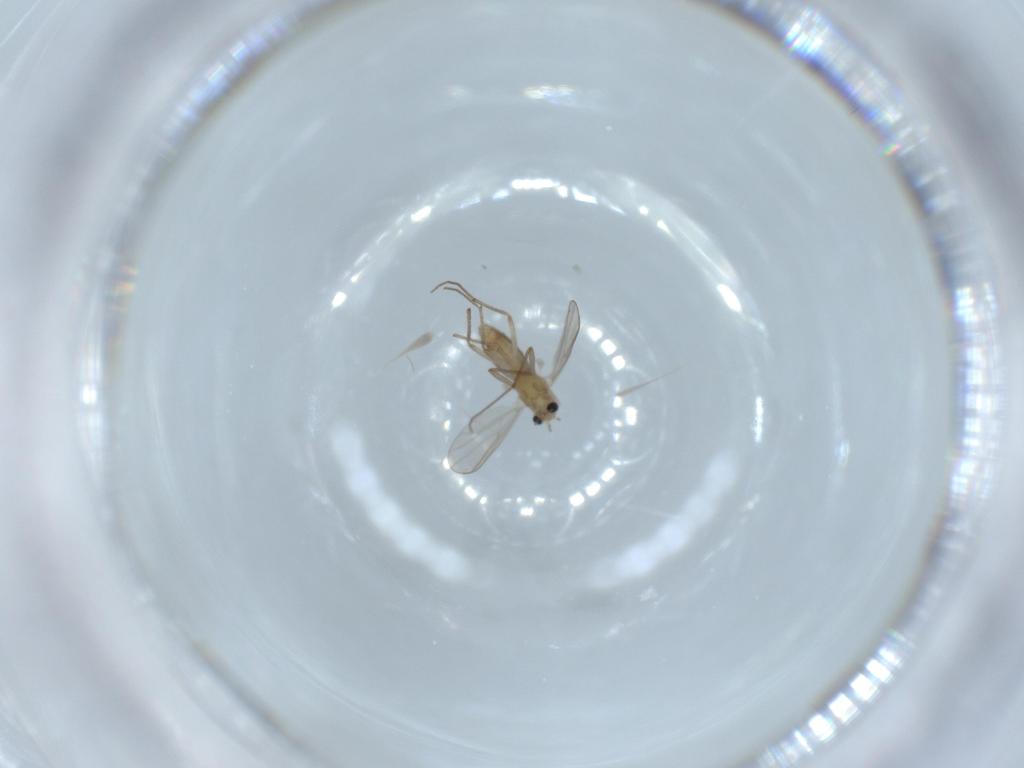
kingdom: Animalia
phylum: Arthropoda
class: Insecta
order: Diptera
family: Chironomidae
